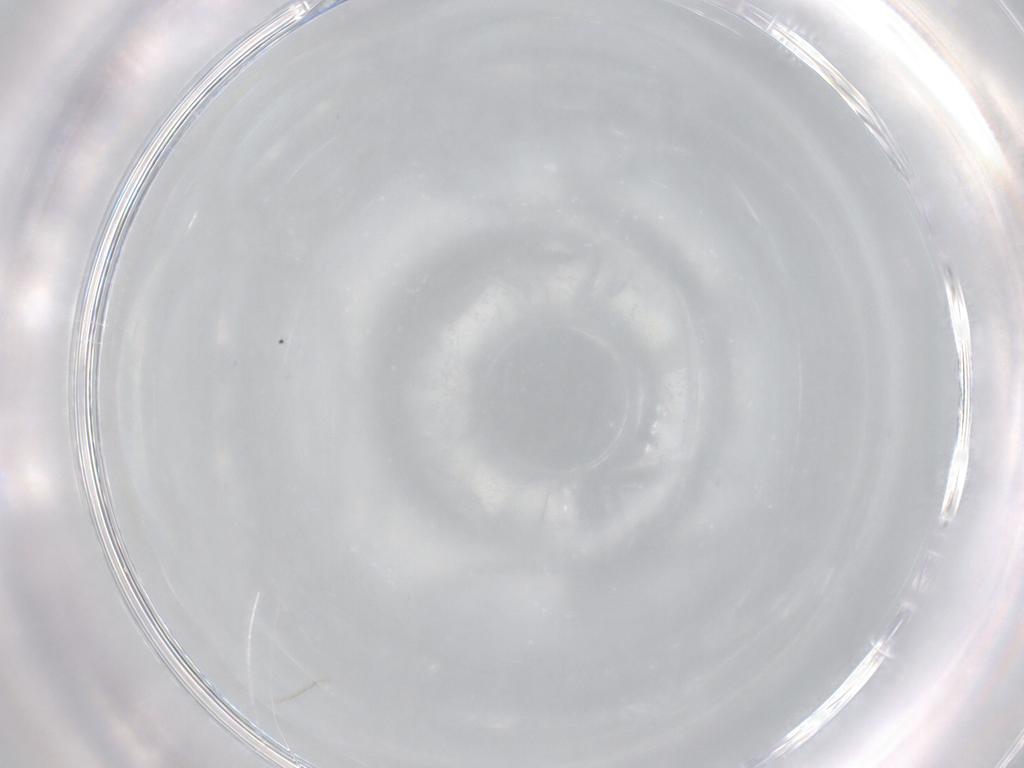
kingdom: Animalia
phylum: Arthropoda
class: Insecta
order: Diptera
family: Cecidomyiidae
